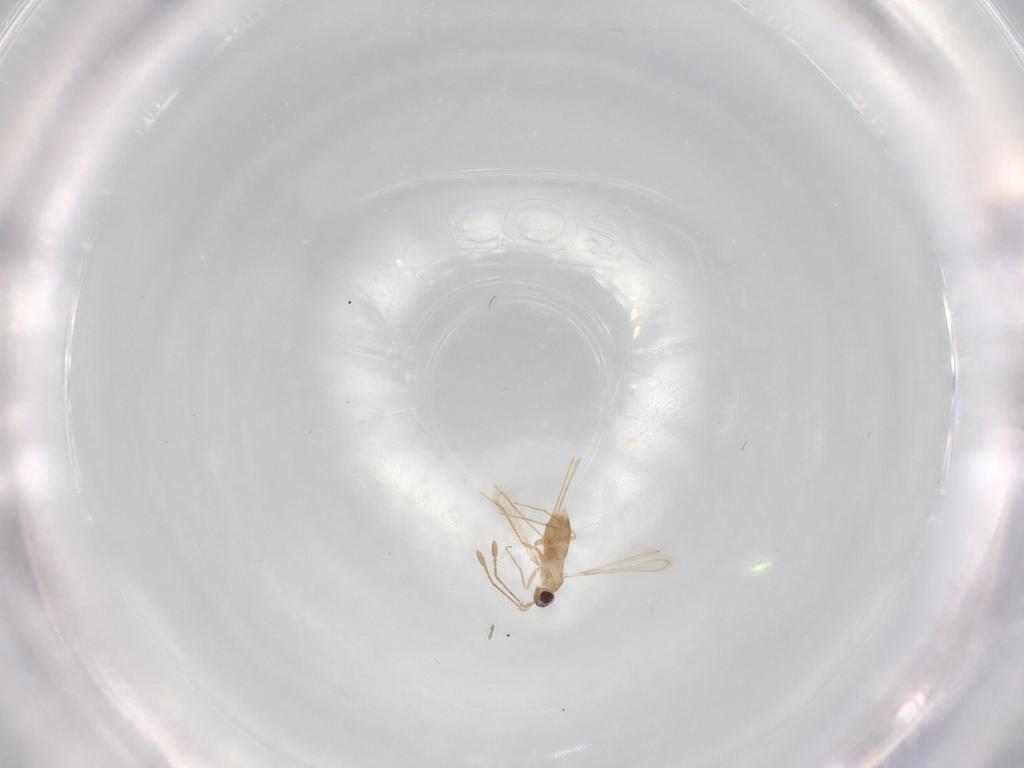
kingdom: Animalia
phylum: Arthropoda
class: Insecta
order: Hymenoptera
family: Mymaridae
